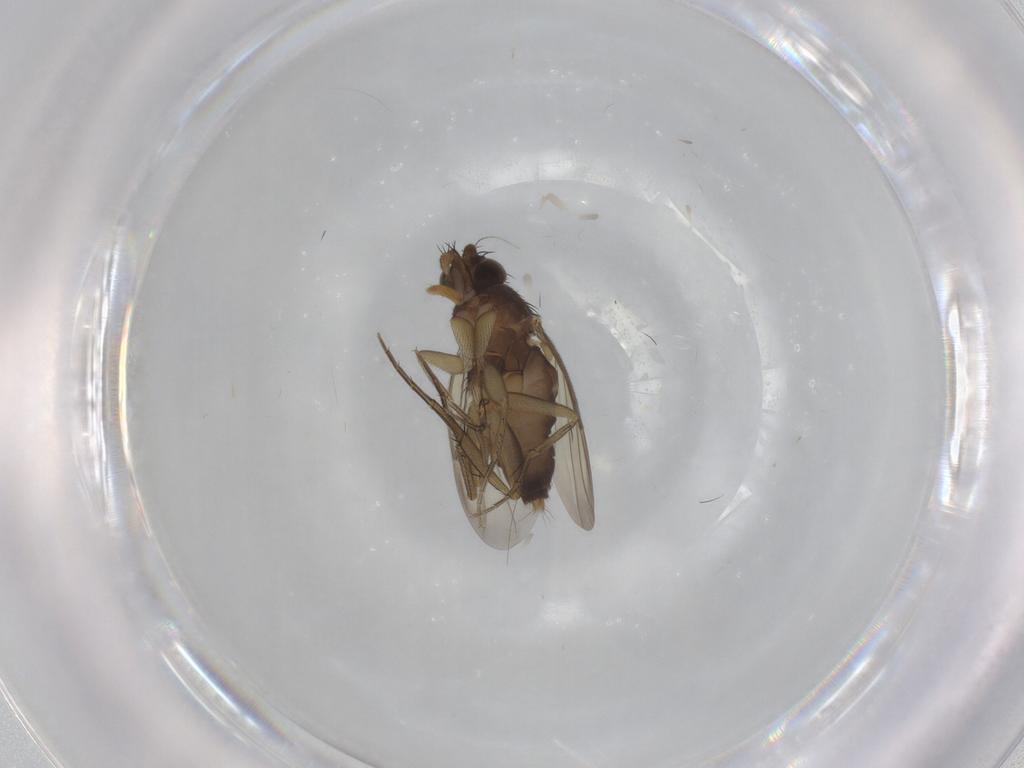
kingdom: Animalia
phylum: Arthropoda
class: Insecta
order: Diptera
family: Phoridae
